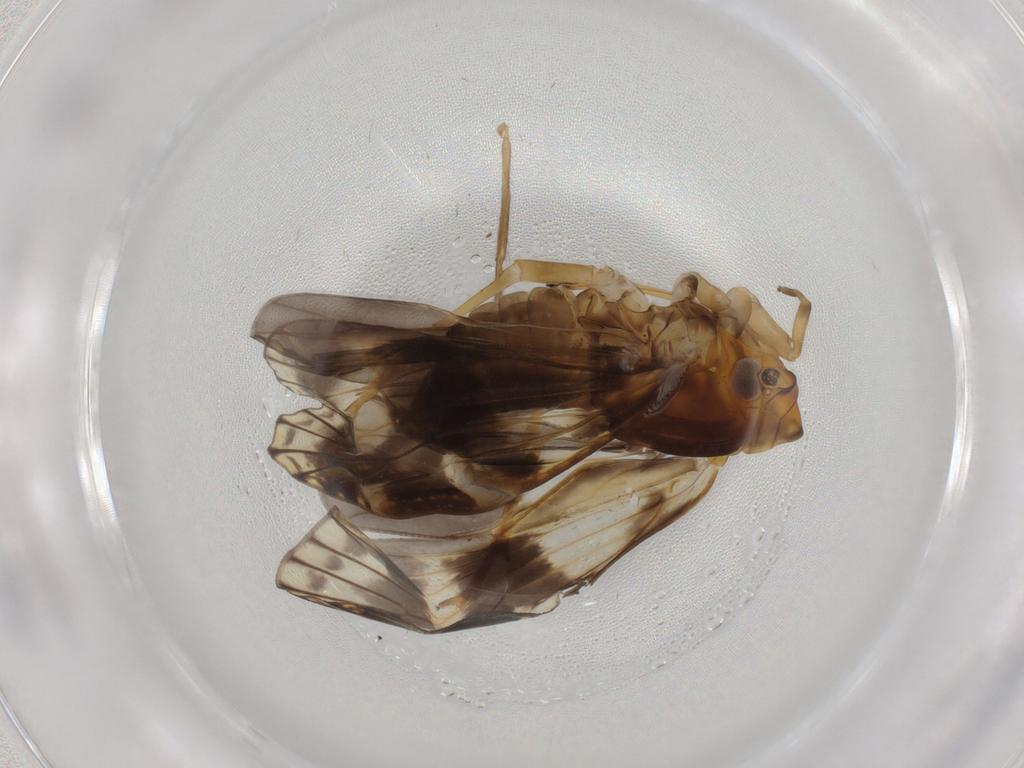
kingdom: Animalia
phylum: Arthropoda
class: Insecta
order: Hemiptera
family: Cixiidae
